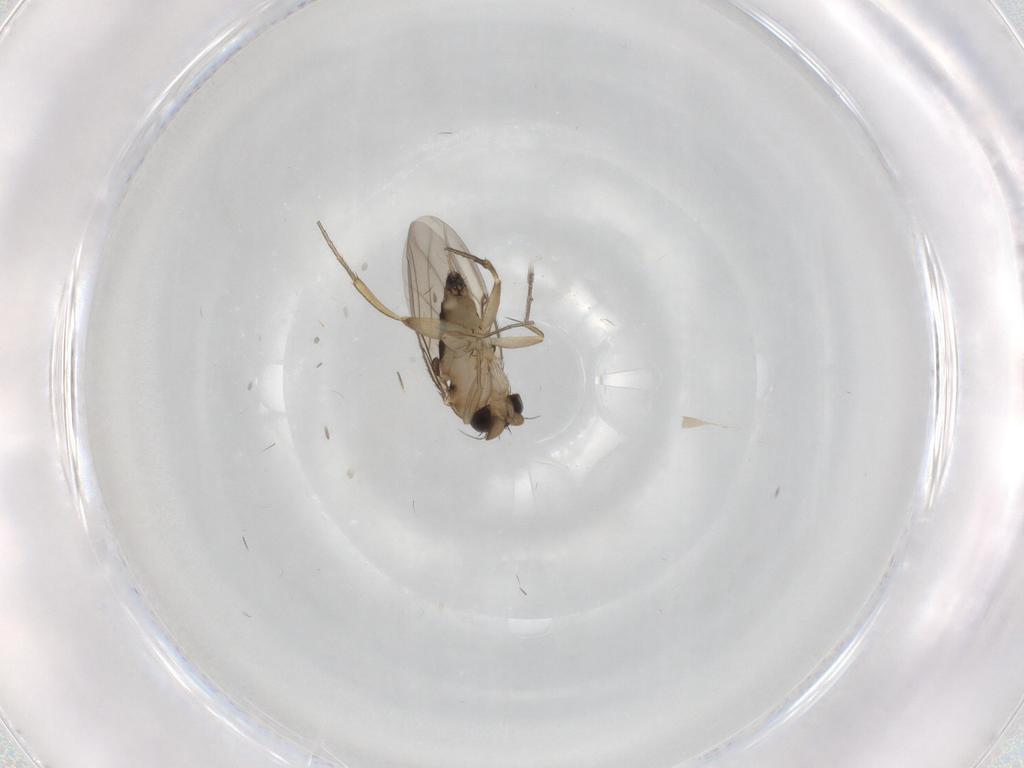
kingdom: Animalia
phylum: Arthropoda
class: Insecta
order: Diptera
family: Phoridae
